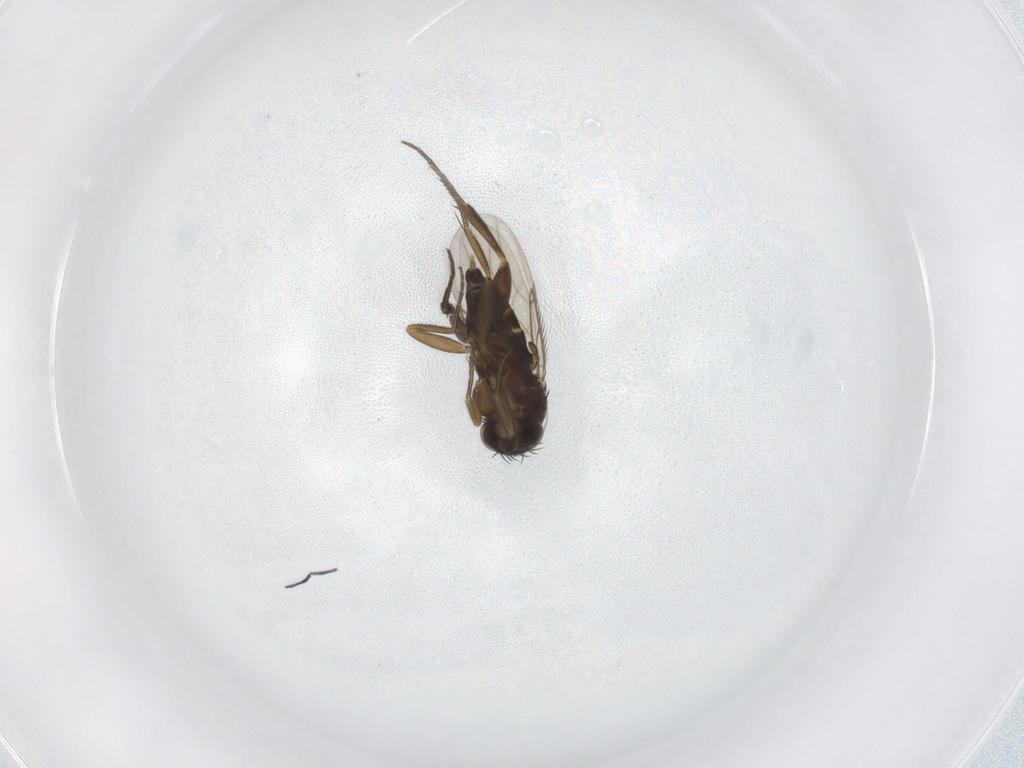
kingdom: Animalia
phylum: Arthropoda
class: Insecta
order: Diptera
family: Phoridae
